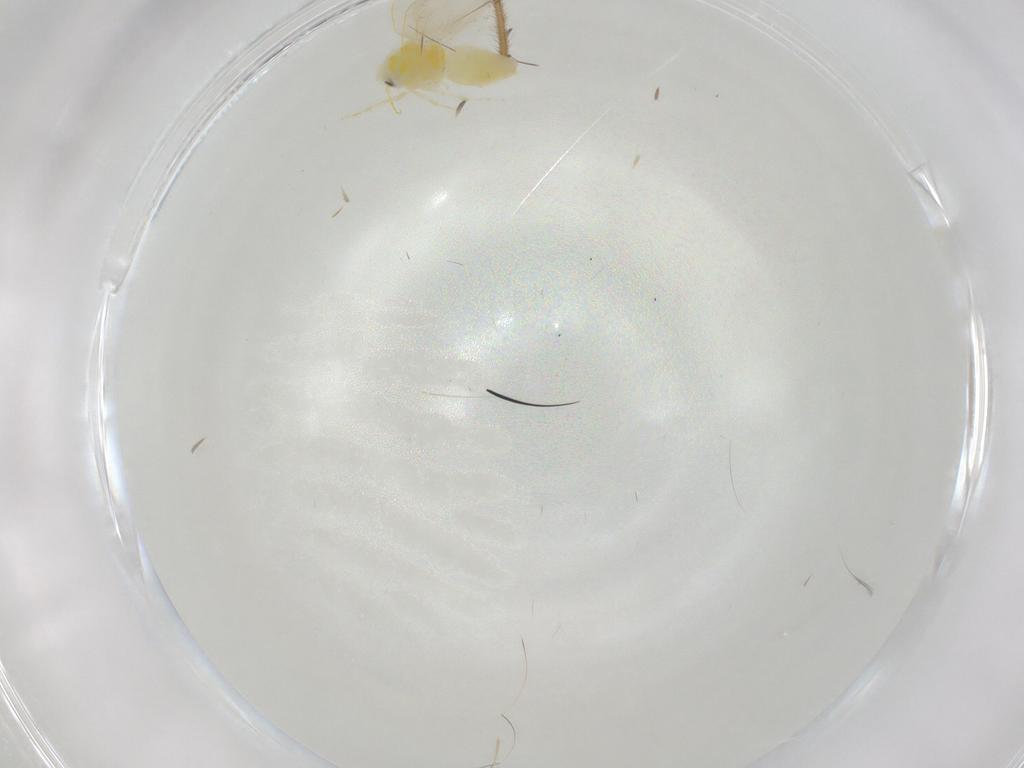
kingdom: Animalia
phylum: Arthropoda
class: Insecta
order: Hemiptera
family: Aleyrodidae
